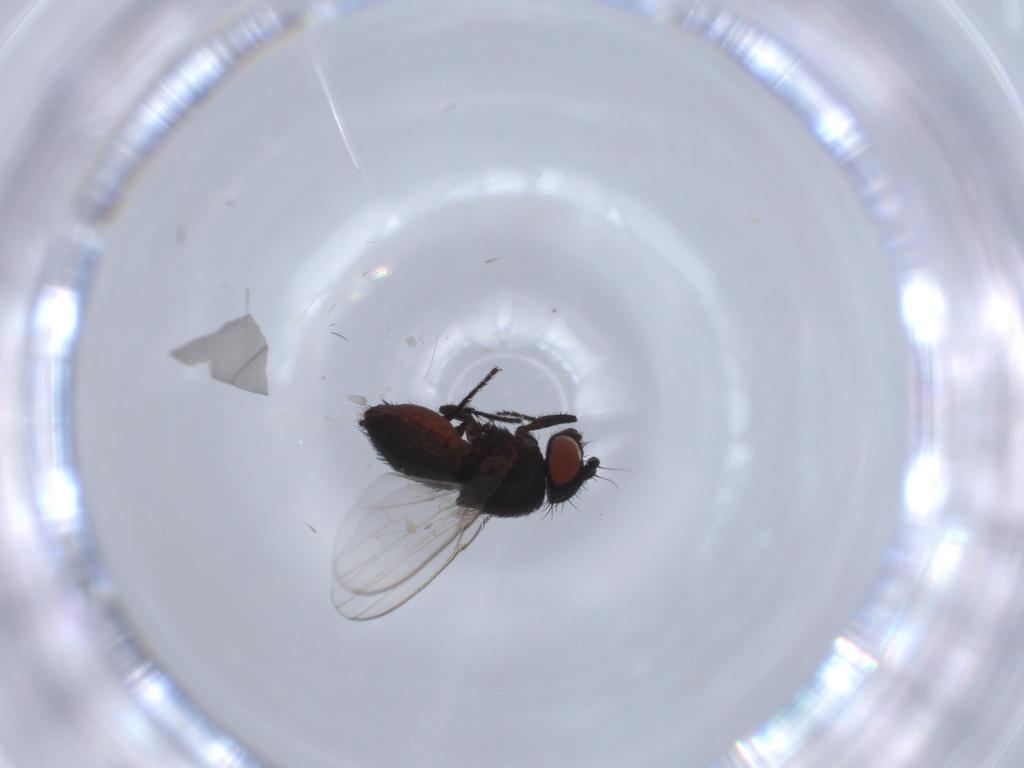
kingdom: Animalia
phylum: Arthropoda
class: Insecta
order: Diptera
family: Milichiidae
